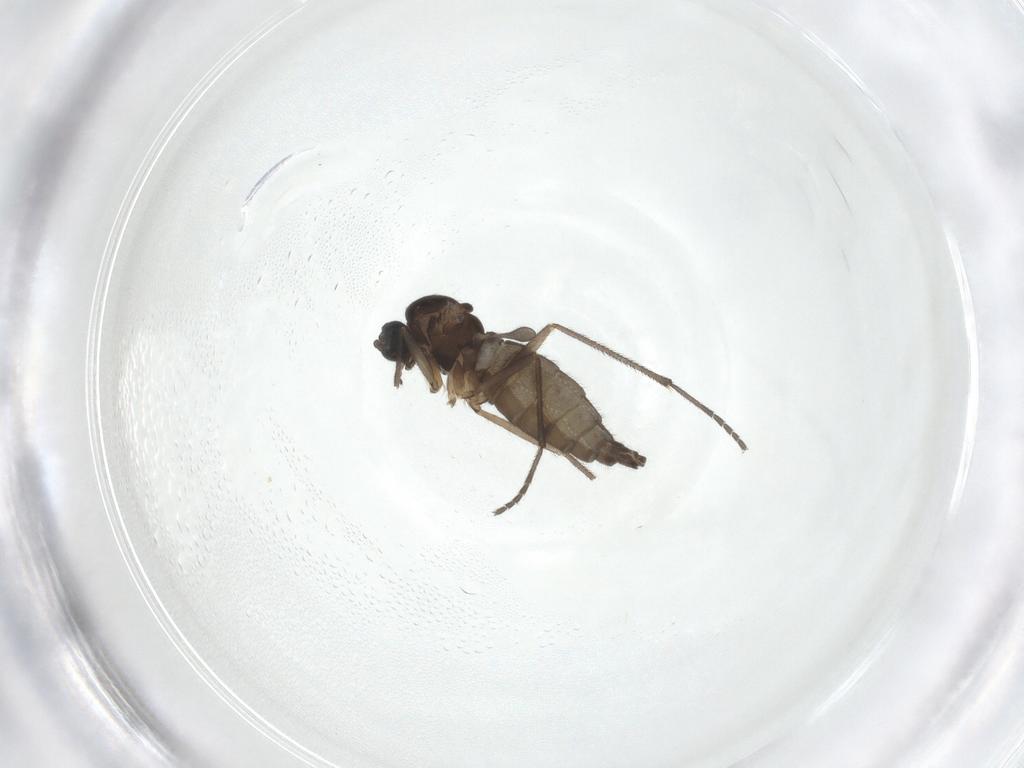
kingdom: Animalia
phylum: Arthropoda
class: Insecta
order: Diptera
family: Sciaridae
